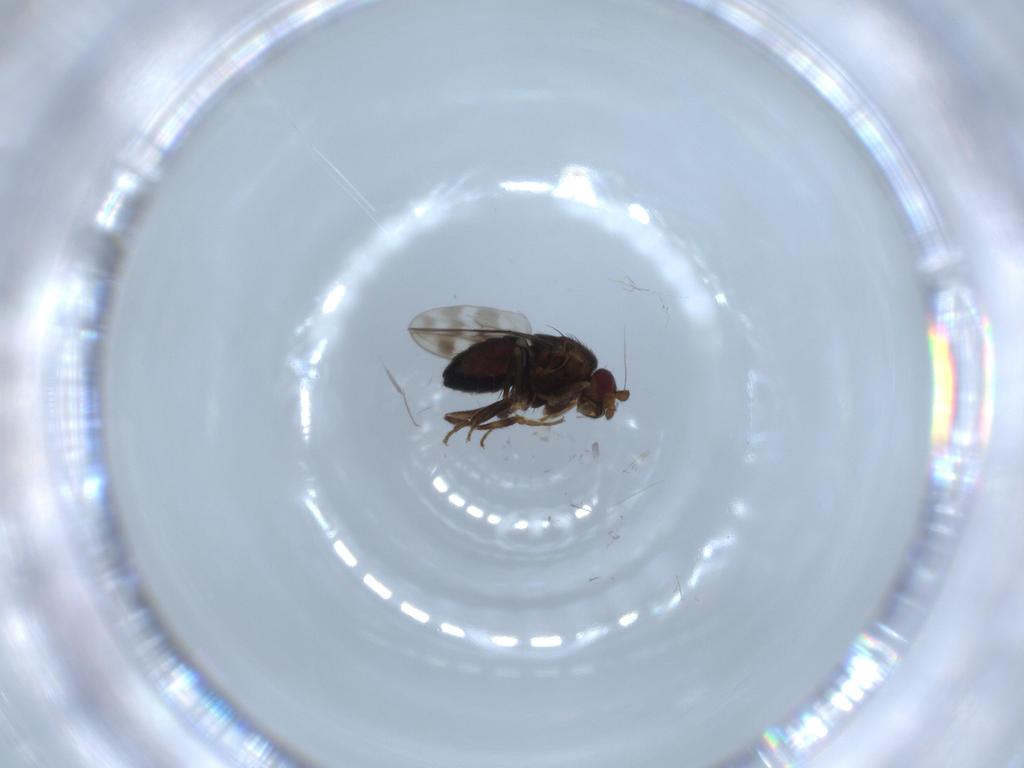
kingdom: Animalia
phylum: Arthropoda
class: Insecta
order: Diptera
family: Sphaeroceridae
